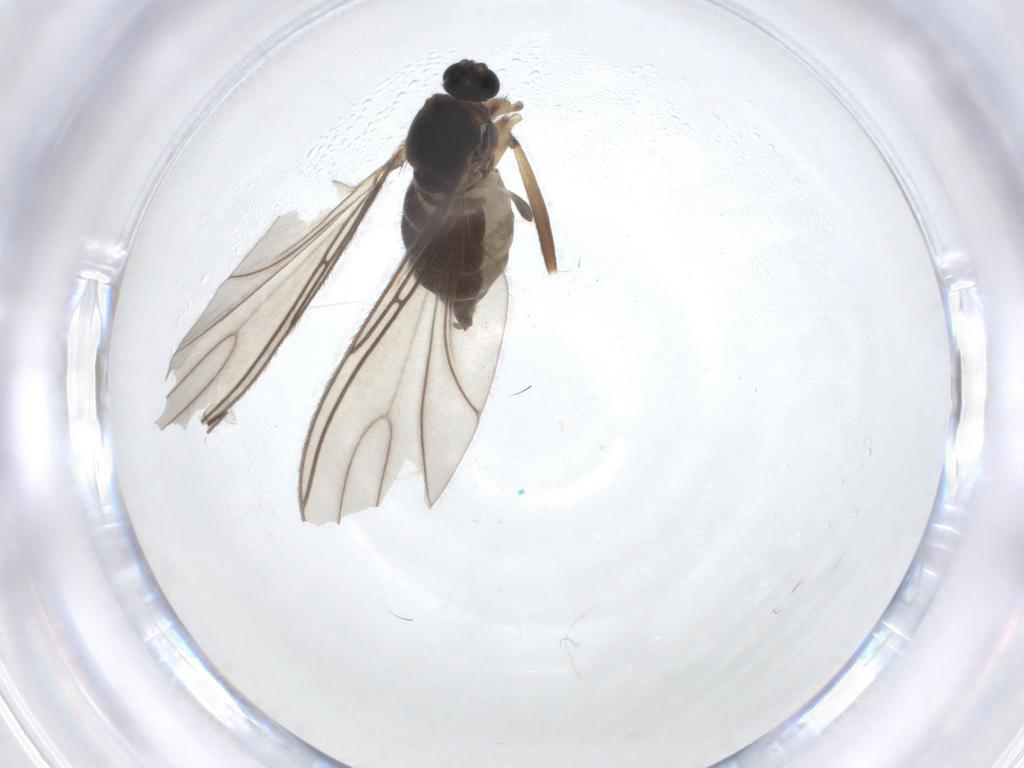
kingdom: Animalia
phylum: Arthropoda
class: Insecta
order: Diptera
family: Sciaridae
